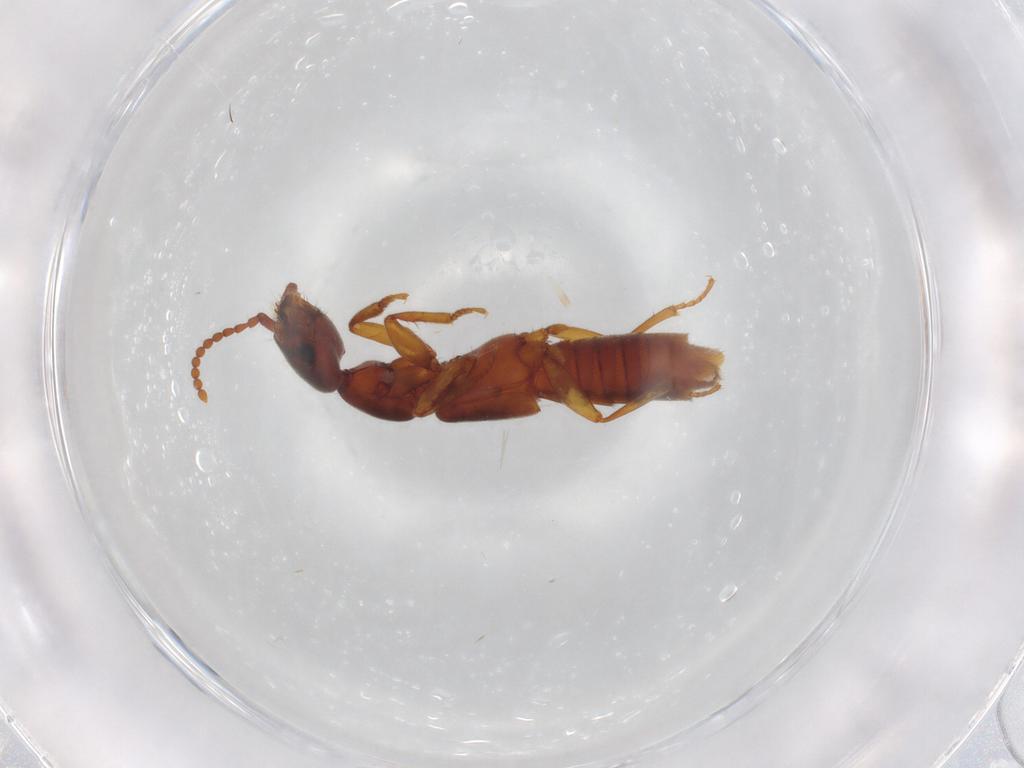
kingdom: Animalia
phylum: Arthropoda
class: Insecta
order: Coleoptera
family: Staphylinidae
